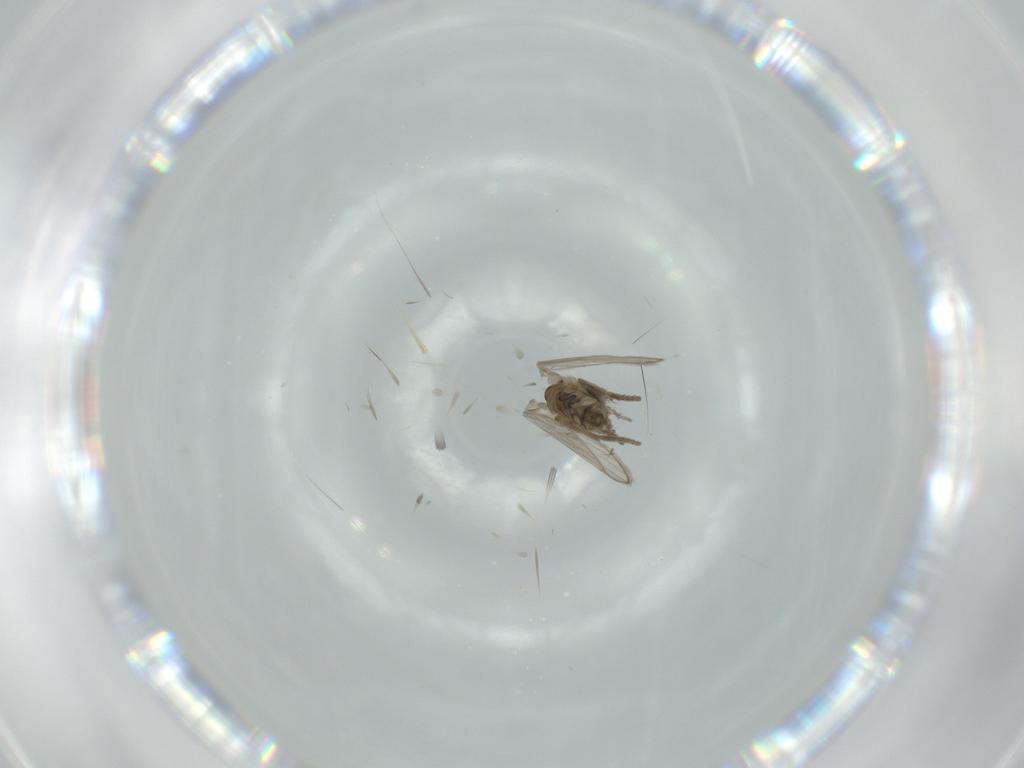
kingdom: Animalia
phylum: Arthropoda
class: Insecta
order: Diptera
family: Psychodidae
